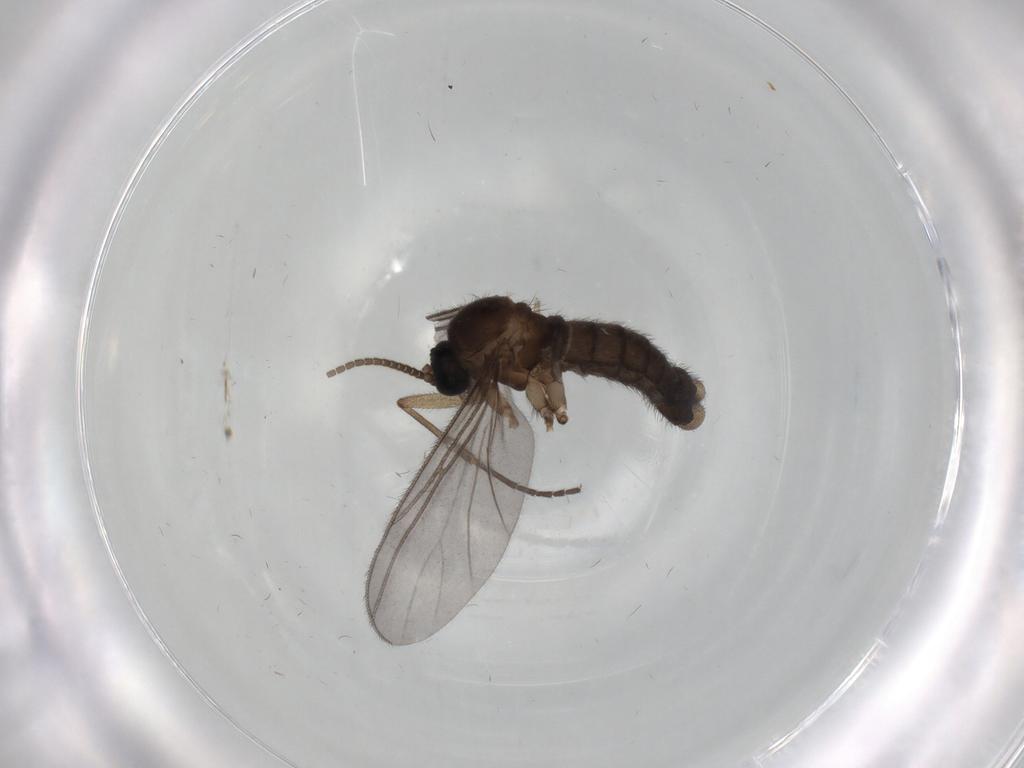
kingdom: Animalia
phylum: Arthropoda
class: Insecta
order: Diptera
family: Sciaridae
